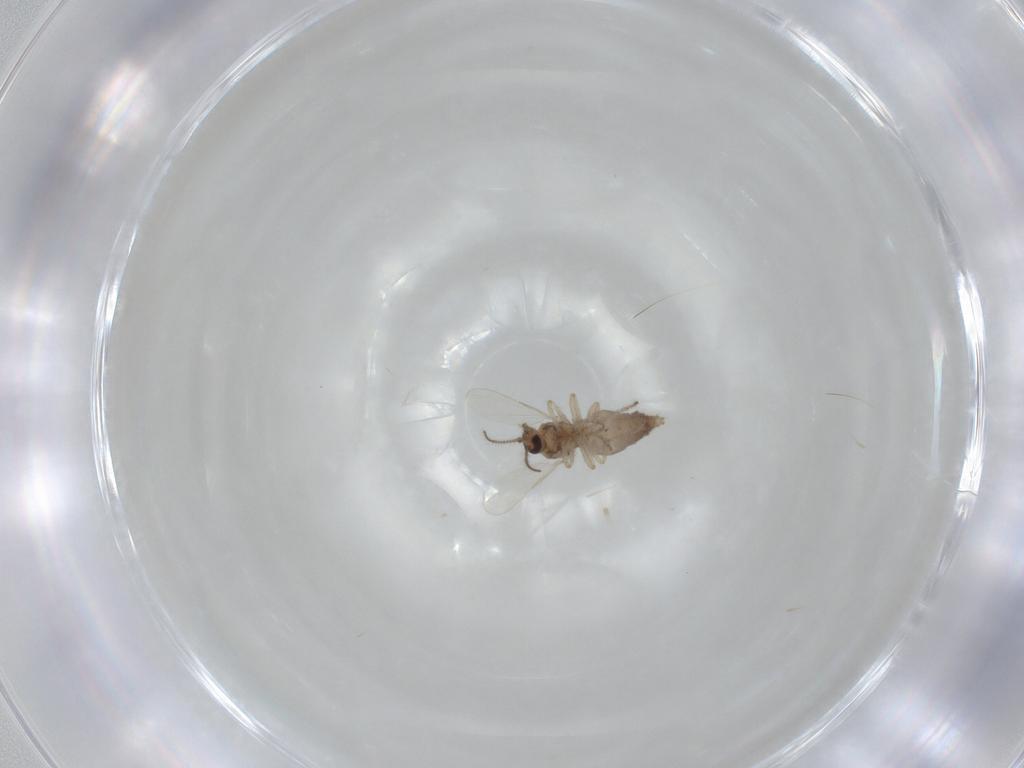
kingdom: Animalia
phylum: Arthropoda
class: Insecta
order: Diptera
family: Ceratopogonidae
